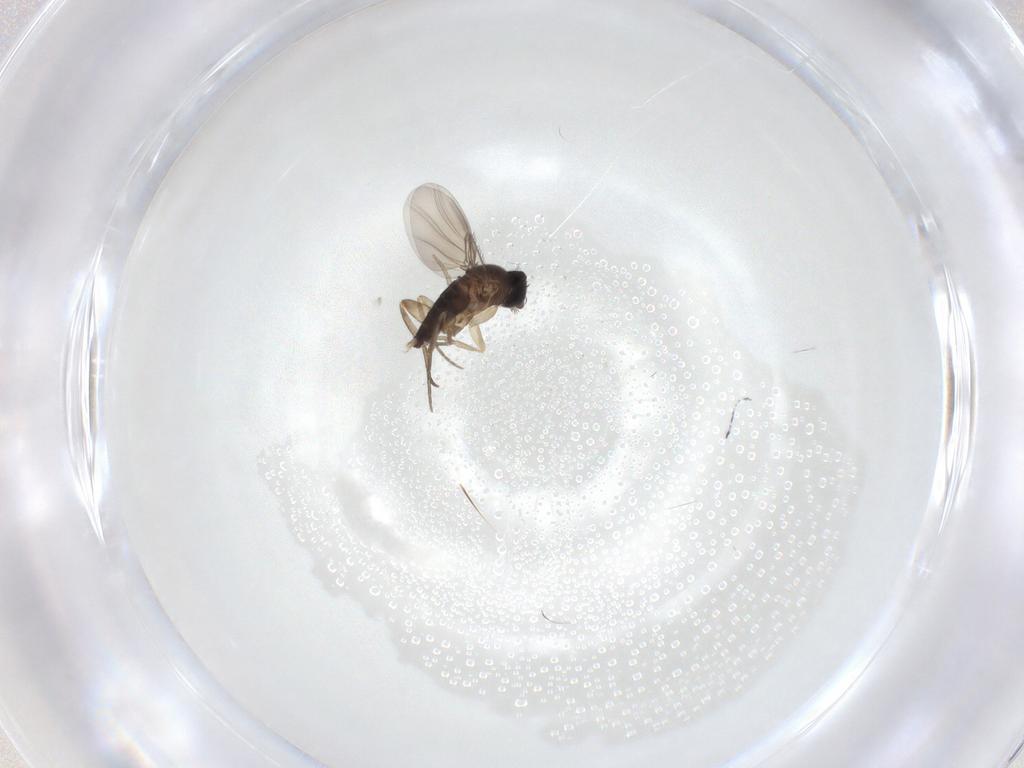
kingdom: Animalia
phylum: Arthropoda
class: Insecta
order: Diptera
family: Phoridae
